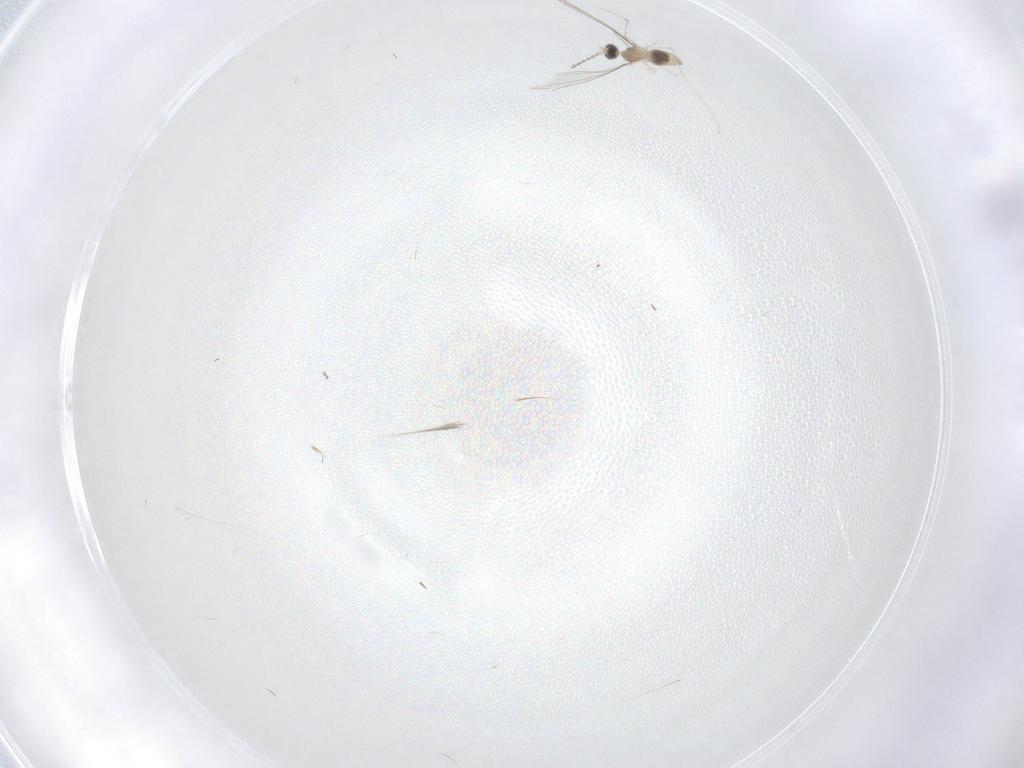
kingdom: Animalia
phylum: Arthropoda
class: Insecta
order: Diptera
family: Cecidomyiidae
